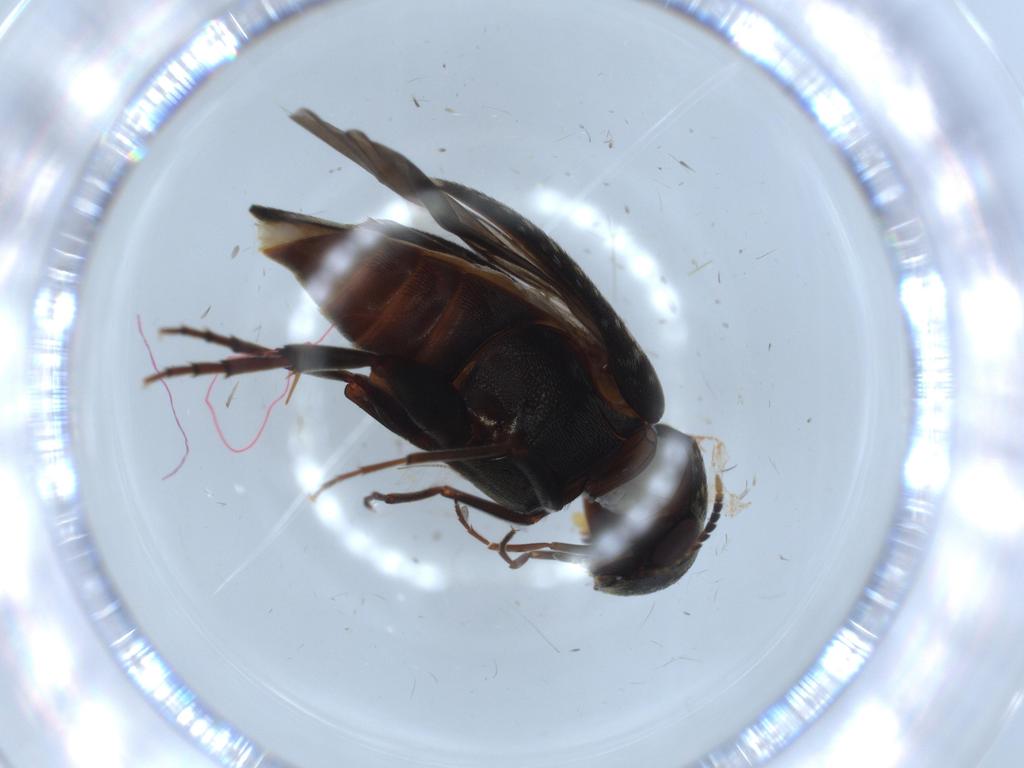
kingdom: Animalia
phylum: Arthropoda
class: Insecta
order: Coleoptera
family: Mordellidae
